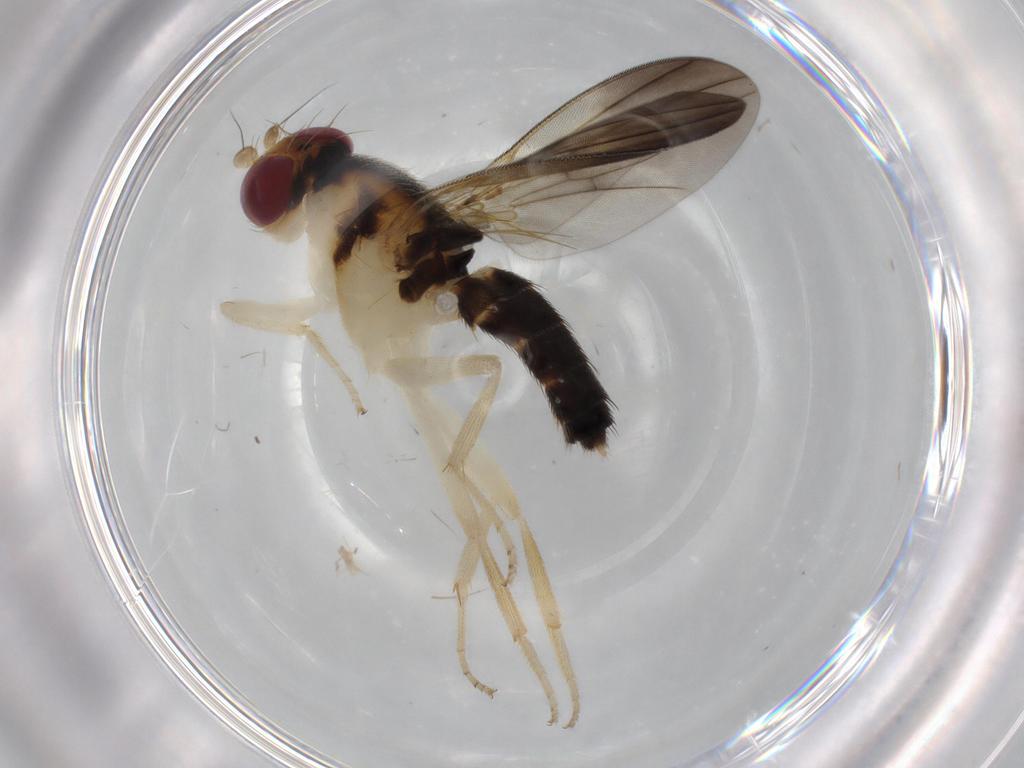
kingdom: Animalia
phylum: Arthropoda
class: Insecta
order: Diptera
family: Clusiidae
